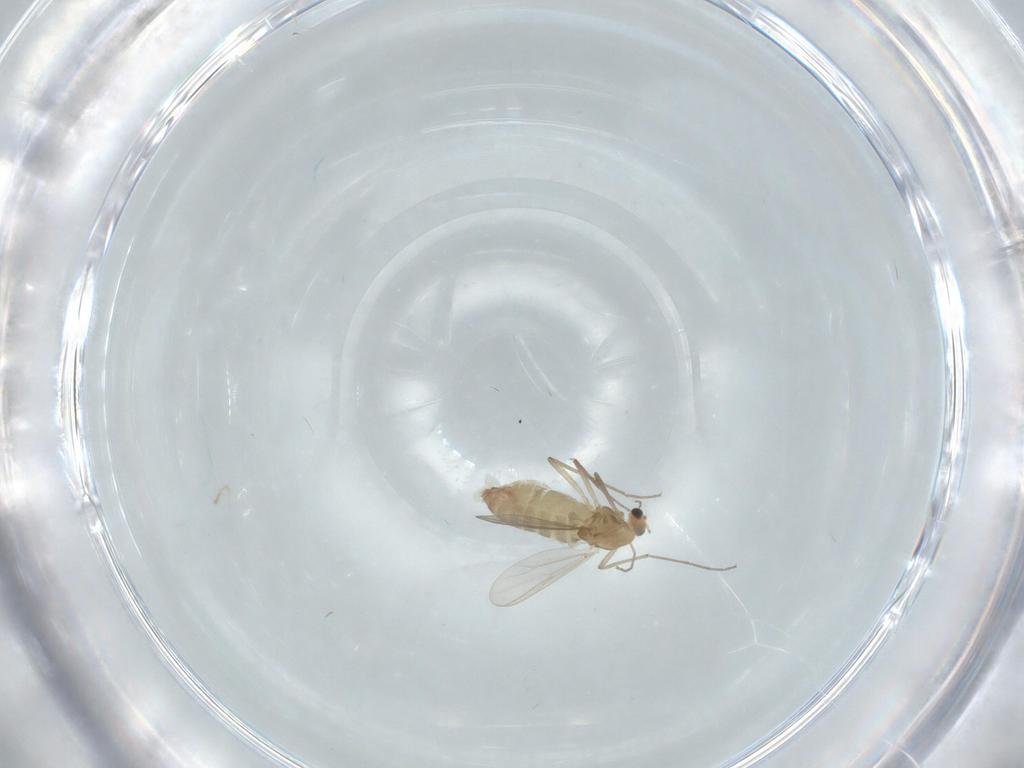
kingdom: Animalia
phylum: Arthropoda
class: Insecta
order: Diptera
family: Chironomidae
